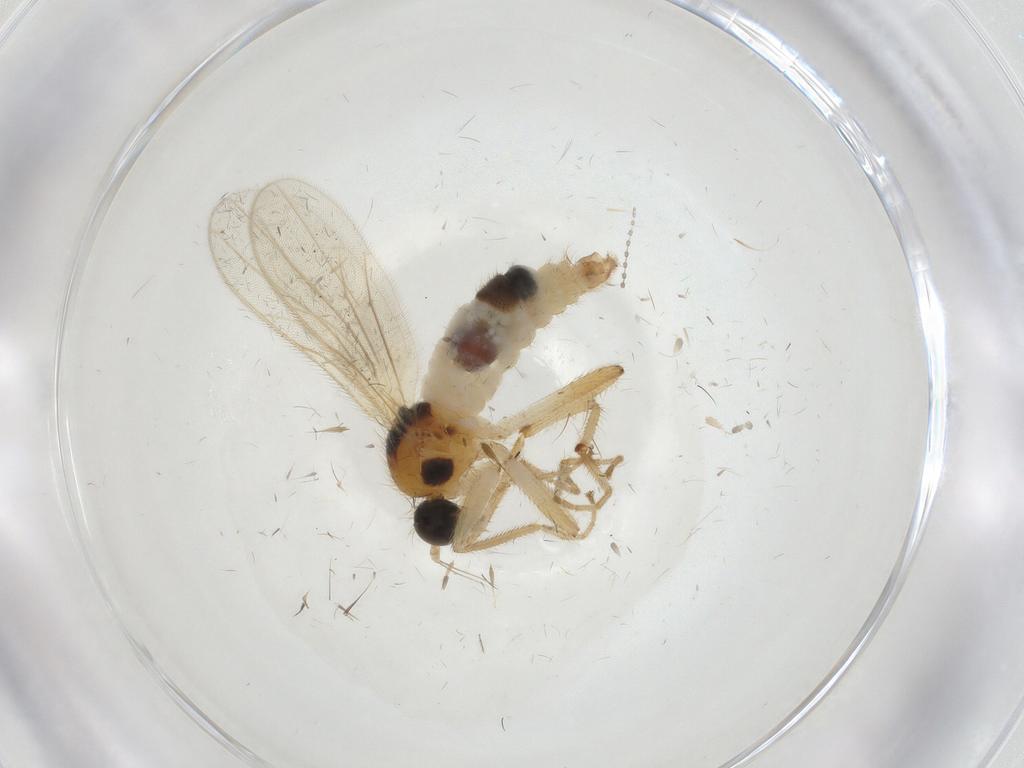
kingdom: Animalia
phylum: Arthropoda
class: Insecta
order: Diptera
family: Hybotidae
